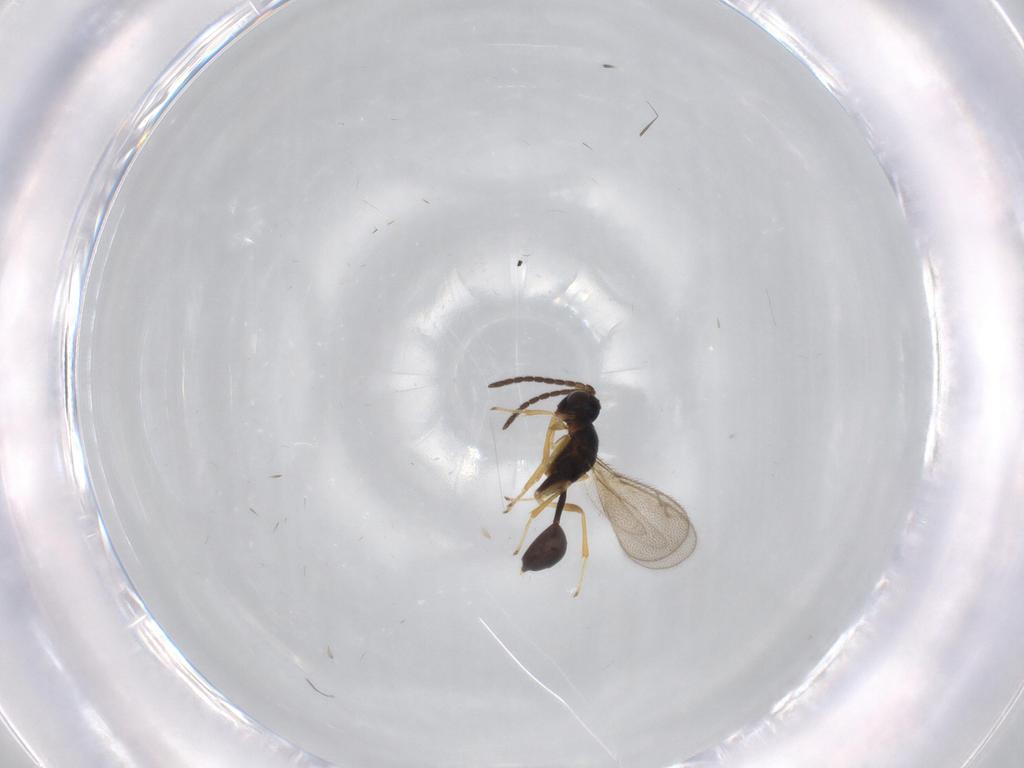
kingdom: Animalia
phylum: Arthropoda
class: Insecta
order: Hymenoptera
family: Diparidae
